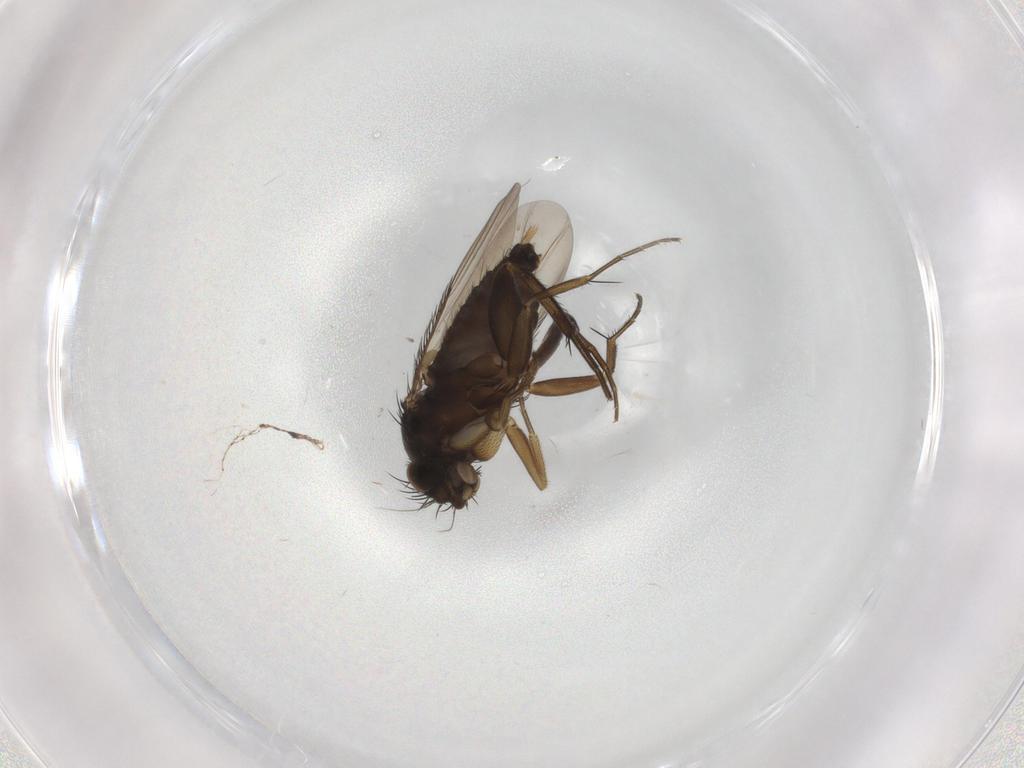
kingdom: Animalia
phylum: Arthropoda
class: Insecta
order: Diptera
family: Phoridae
